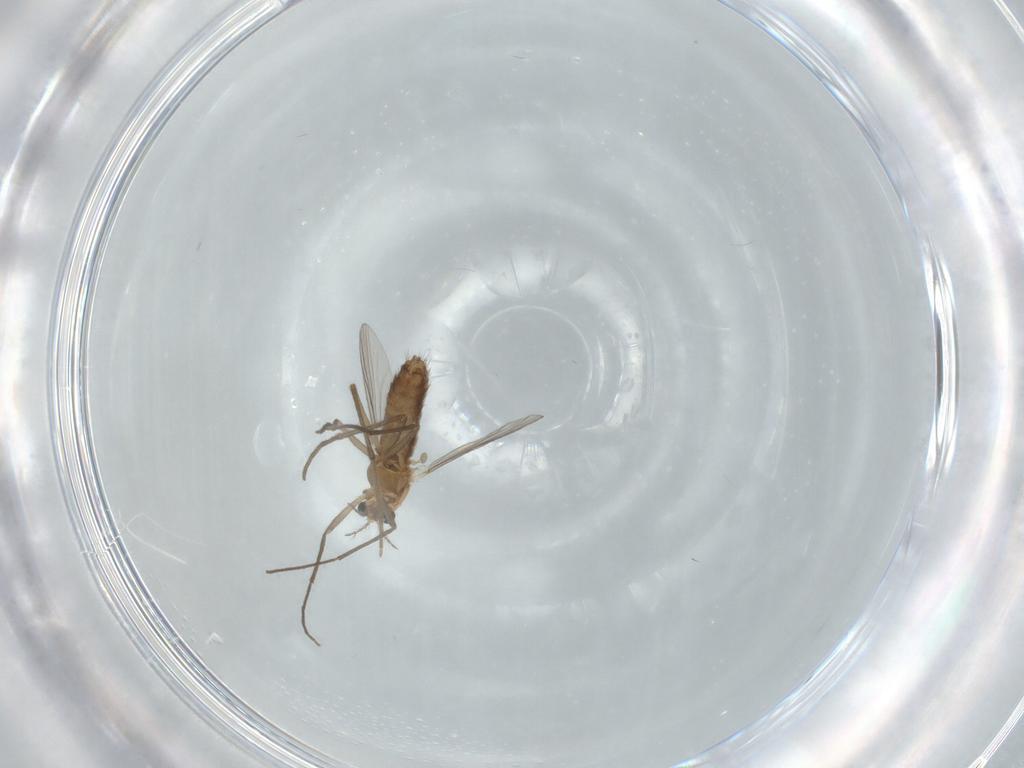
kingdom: Animalia
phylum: Arthropoda
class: Insecta
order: Diptera
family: Chironomidae
